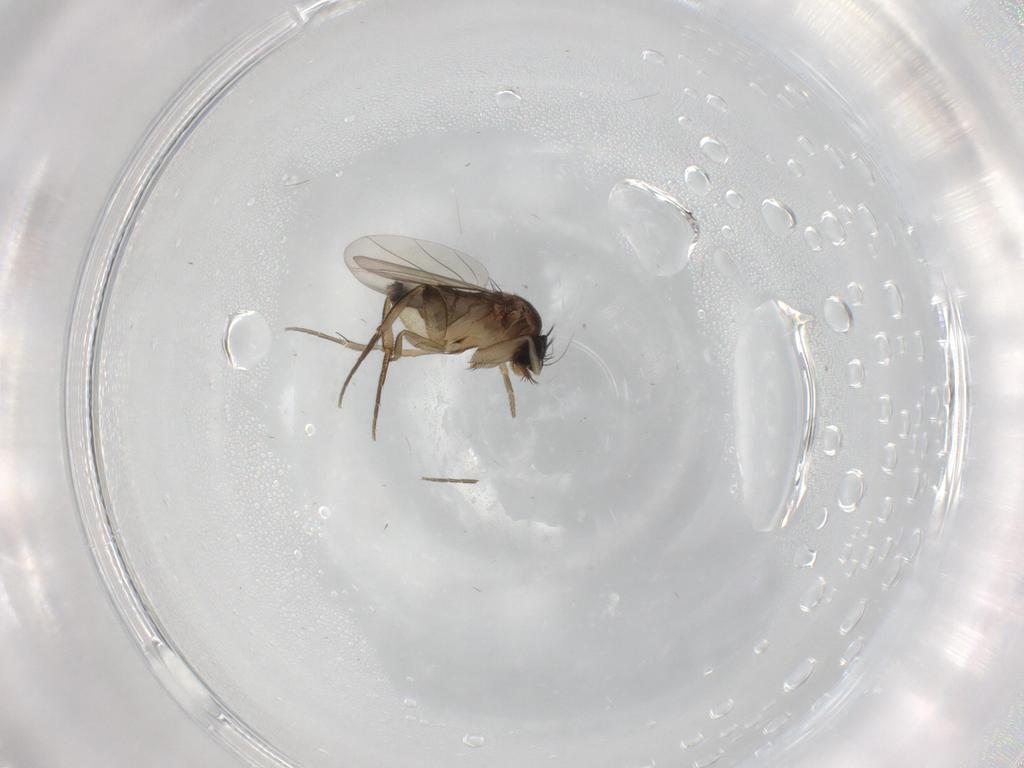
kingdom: Animalia
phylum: Arthropoda
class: Insecta
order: Diptera
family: Phoridae
